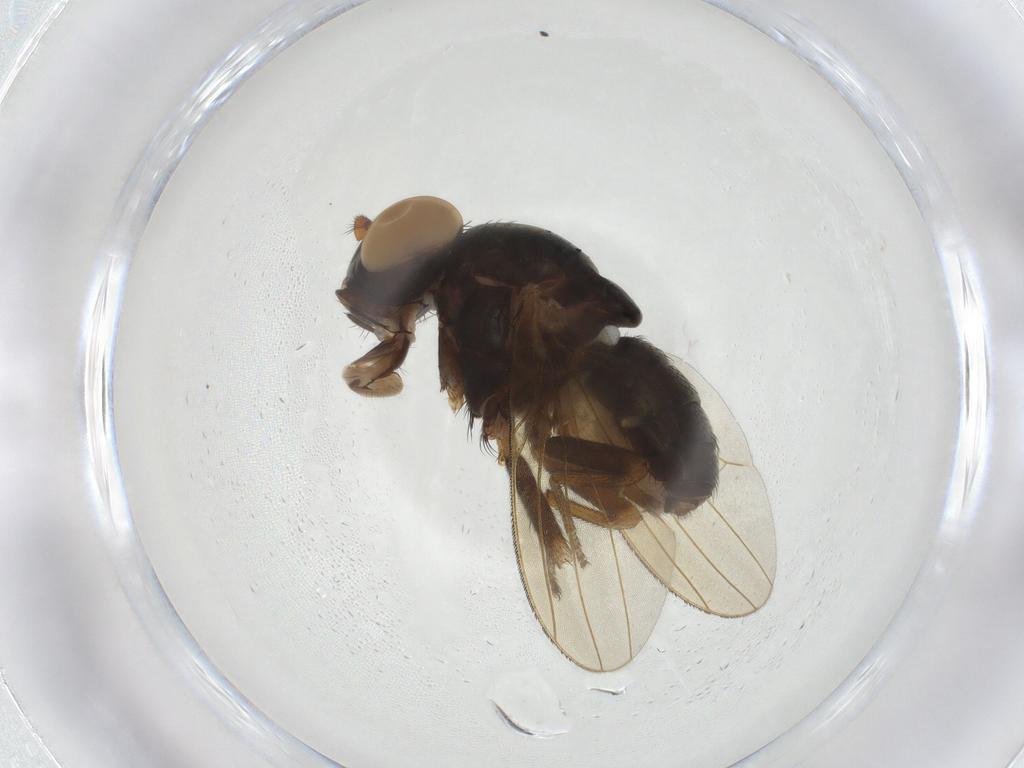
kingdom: Animalia
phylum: Arthropoda
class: Insecta
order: Diptera
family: Lauxaniidae
